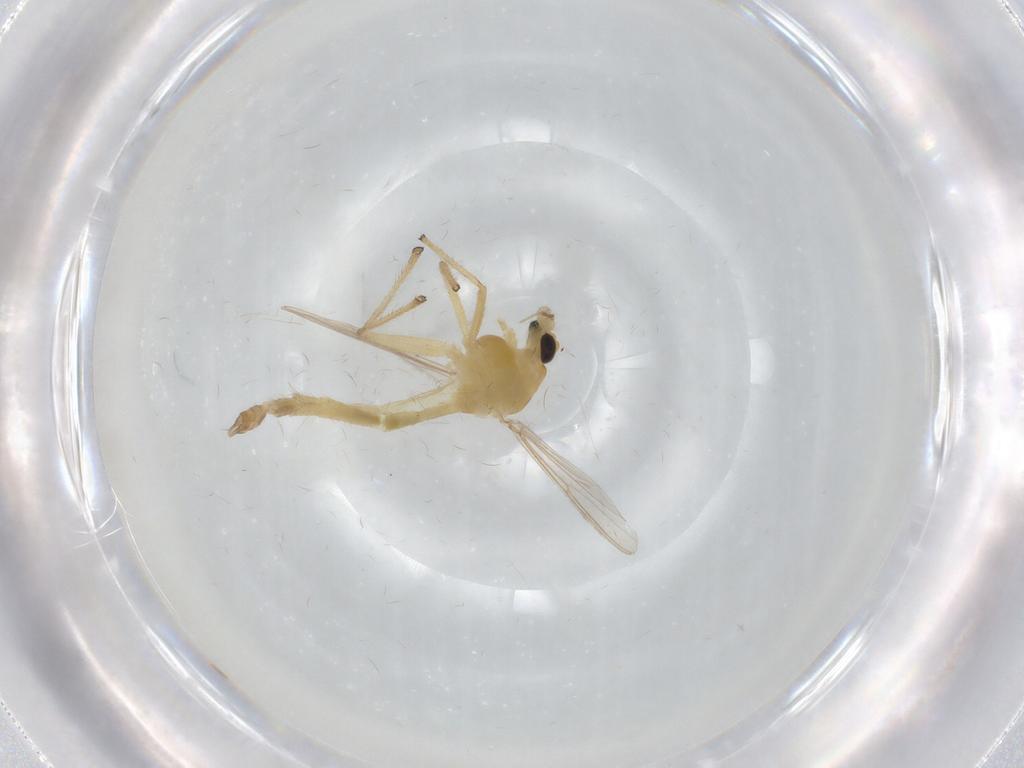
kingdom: Animalia
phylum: Arthropoda
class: Insecta
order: Diptera
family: Chironomidae
